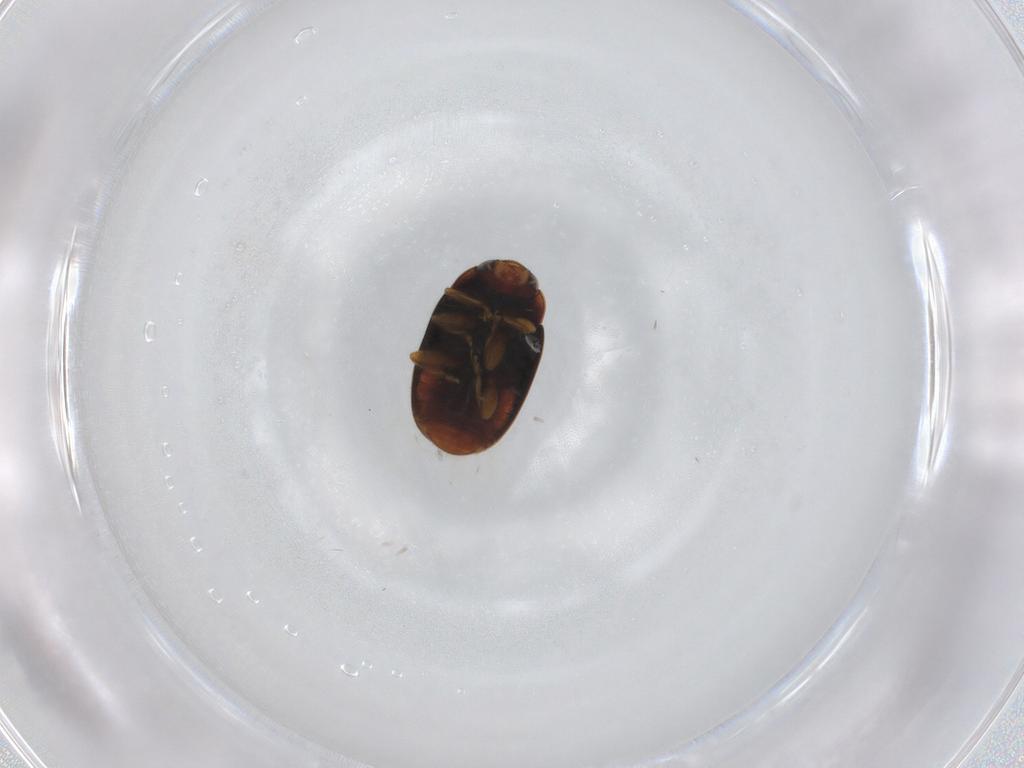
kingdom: Animalia
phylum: Arthropoda
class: Insecta
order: Coleoptera
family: Coccinellidae
